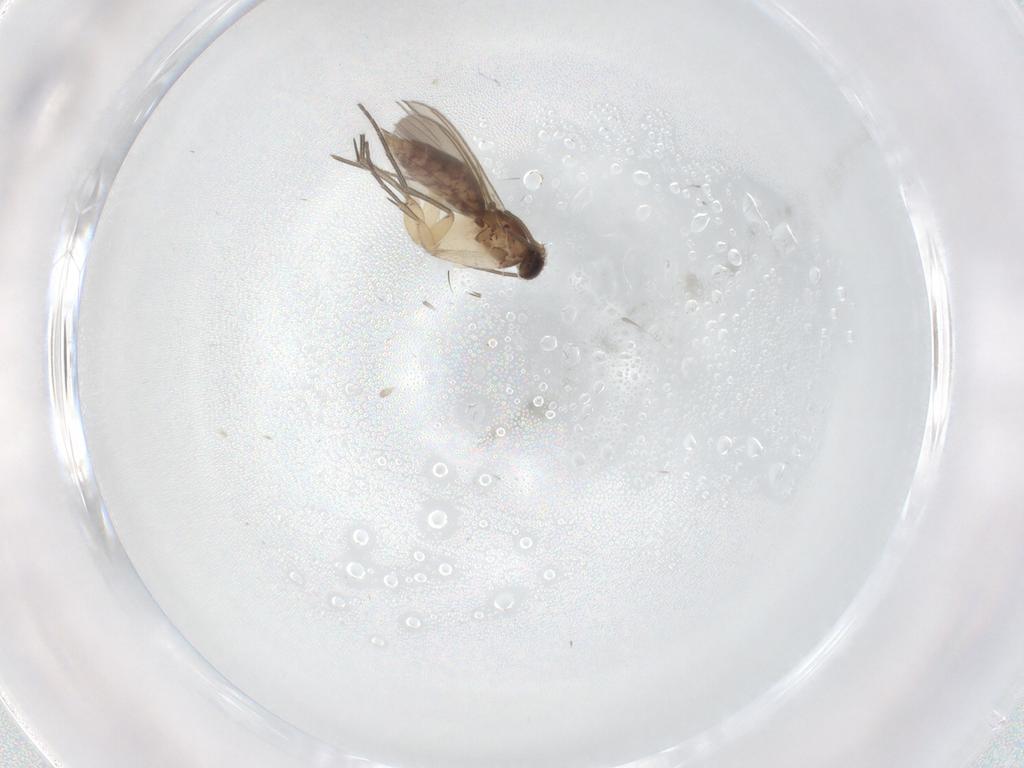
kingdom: Animalia
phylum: Arthropoda
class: Insecta
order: Diptera
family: Mycetophilidae
